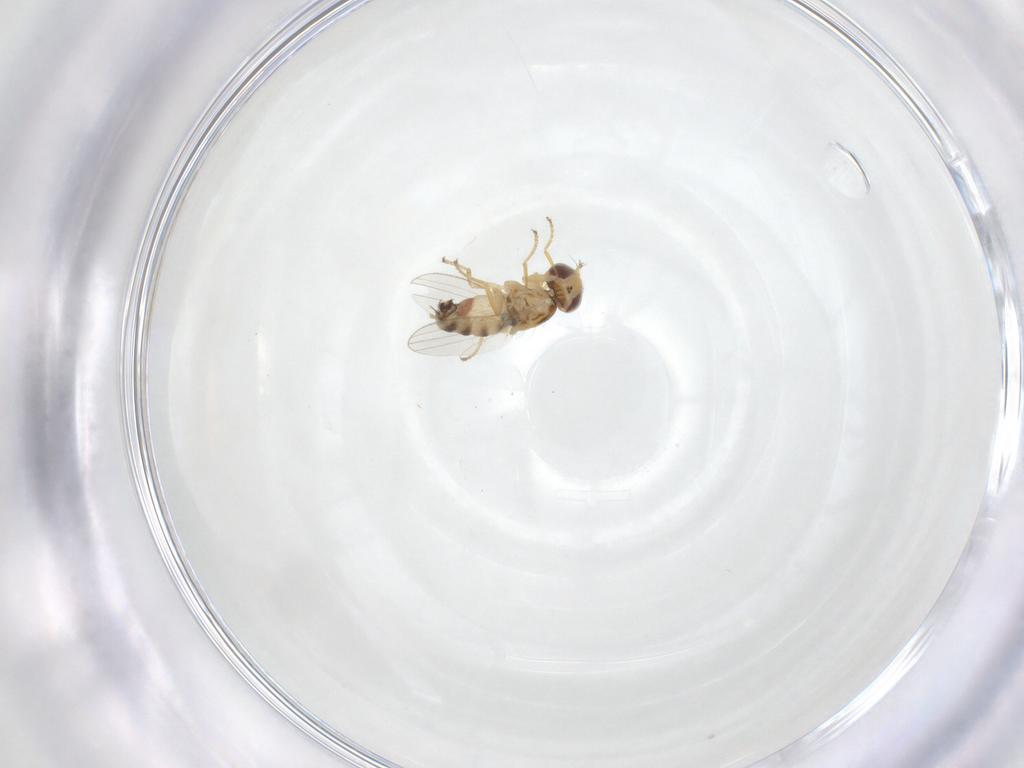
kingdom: Animalia
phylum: Arthropoda
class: Insecta
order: Diptera
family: Chyromyidae
